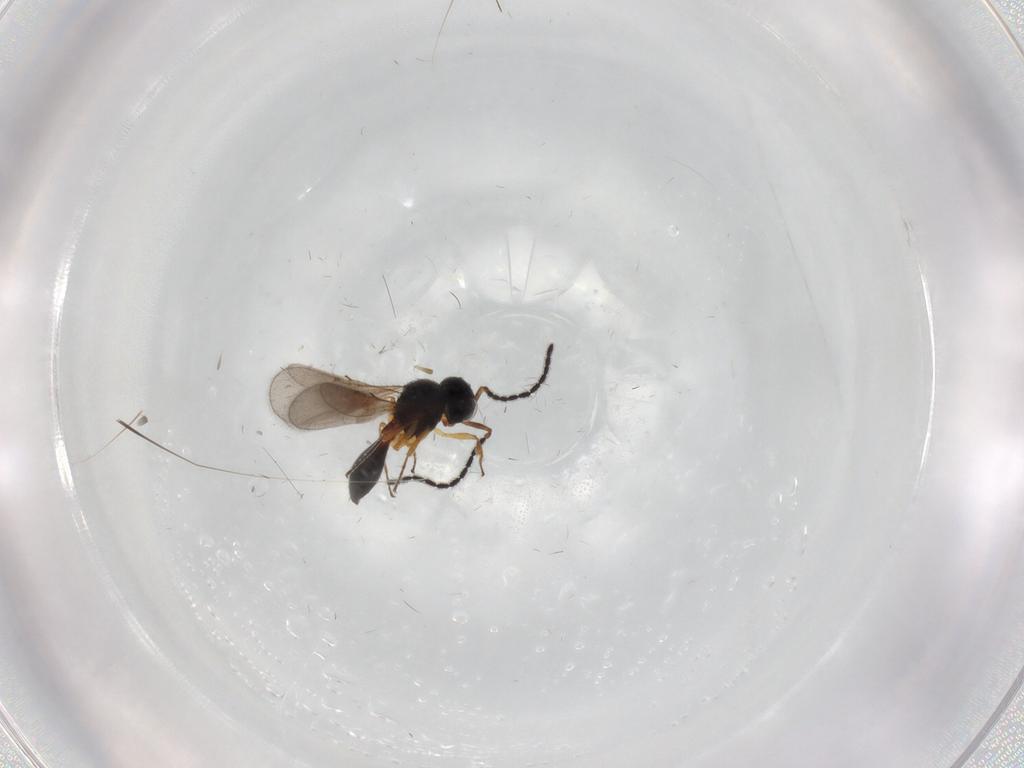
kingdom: Animalia
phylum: Arthropoda
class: Insecta
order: Hymenoptera
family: Scelionidae
